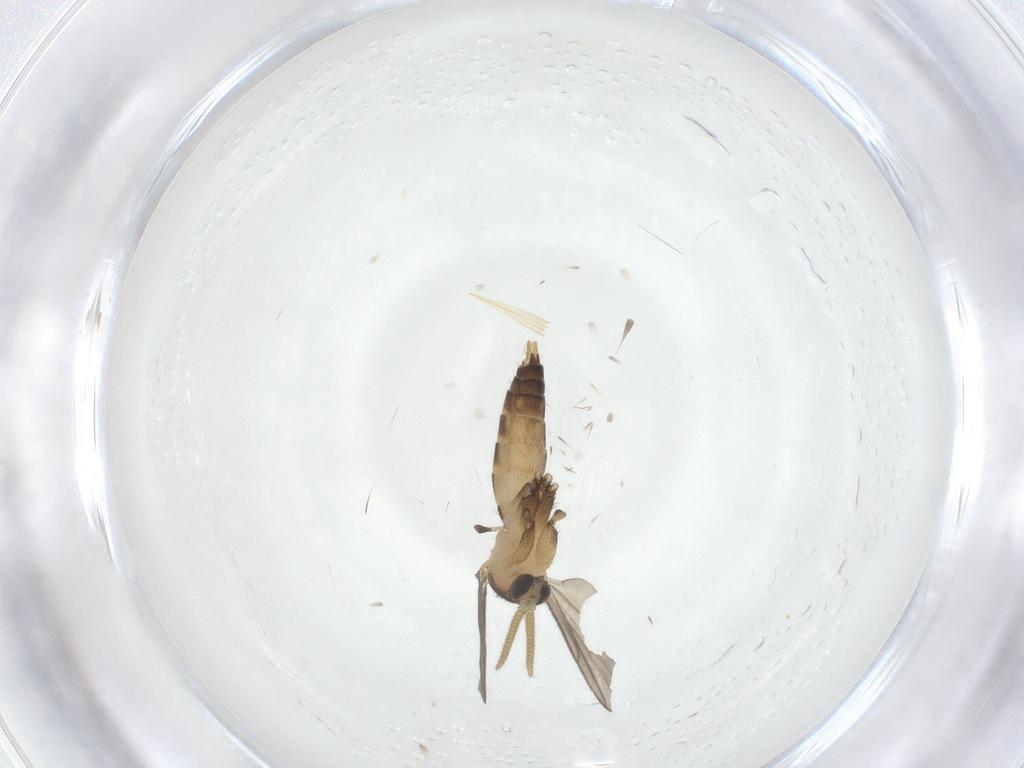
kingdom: Animalia
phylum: Arthropoda
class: Insecta
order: Diptera
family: Mycetophilidae
